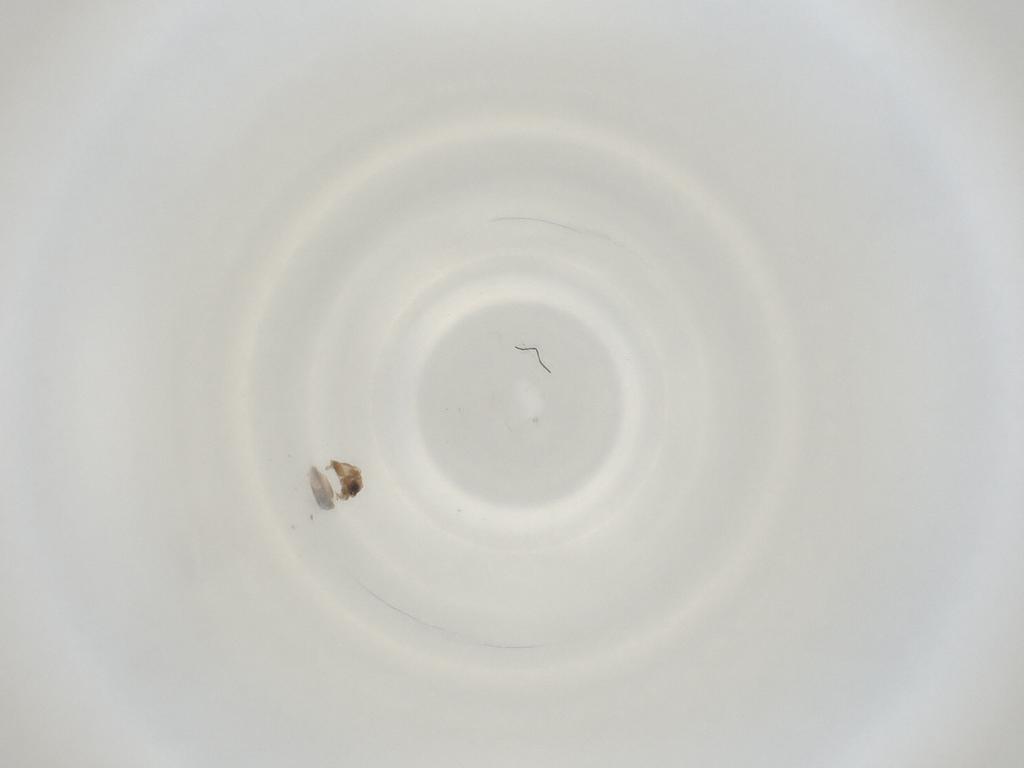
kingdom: Animalia
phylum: Arthropoda
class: Insecta
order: Diptera
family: Cecidomyiidae
